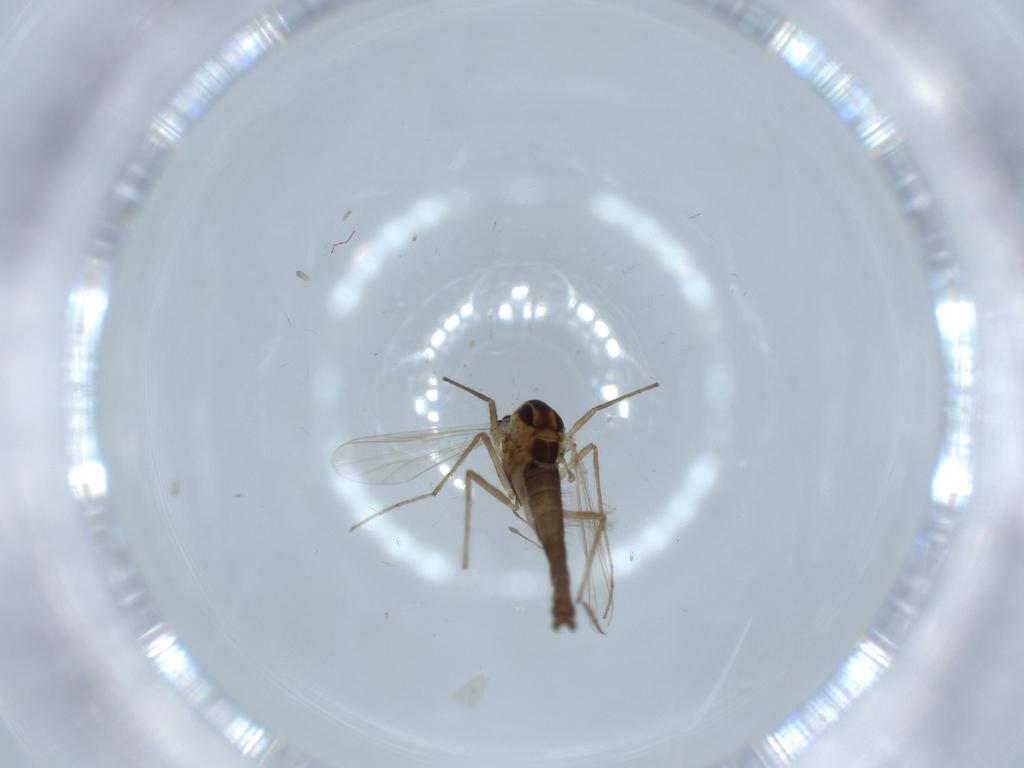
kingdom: Animalia
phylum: Arthropoda
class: Insecta
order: Diptera
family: Chironomidae
